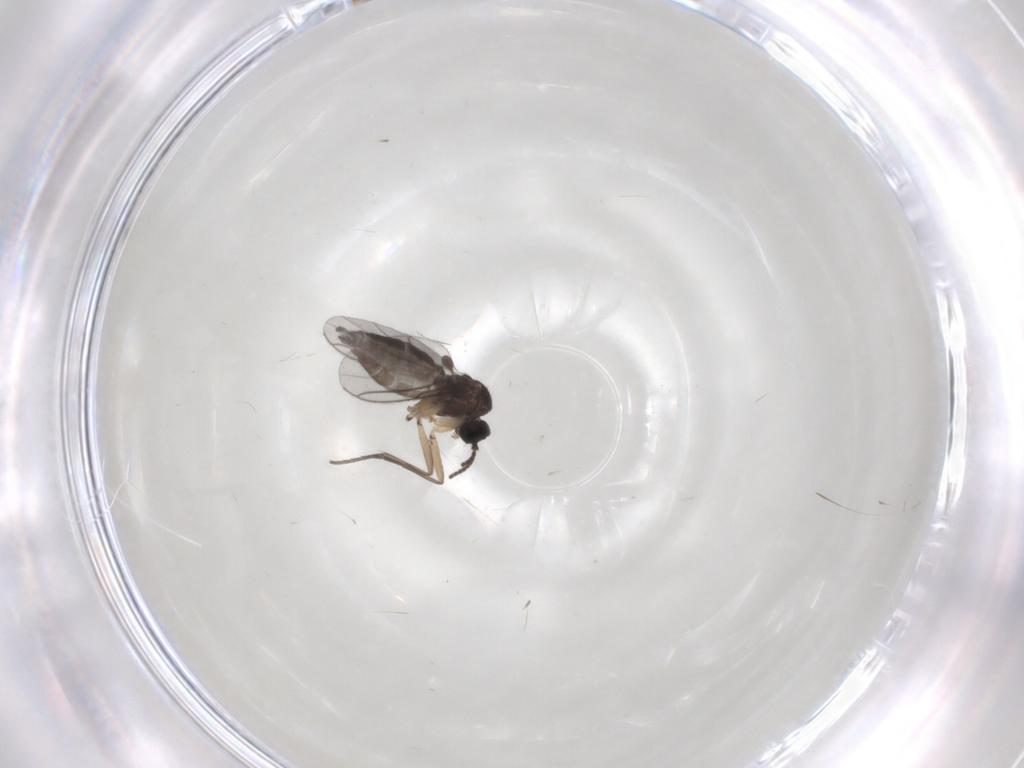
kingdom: Animalia
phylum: Arthropoda
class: Insecta
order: Diptera
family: Sciaridae
